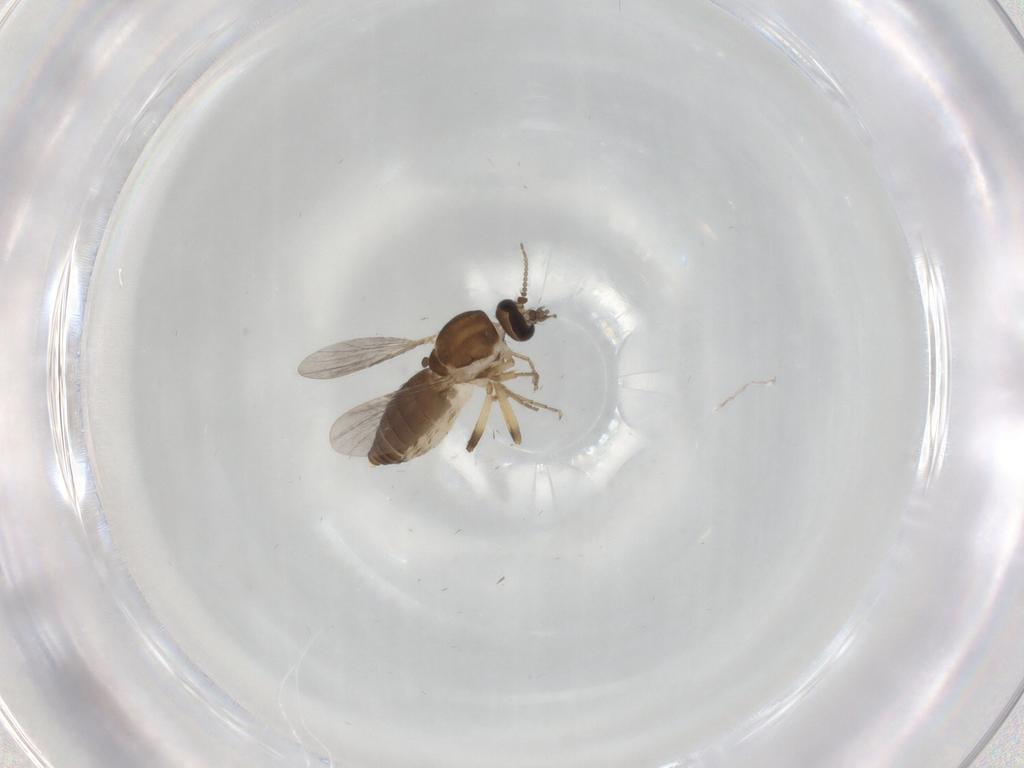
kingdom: Animalia
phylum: Arthropoda
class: Insecta
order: Diptera
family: Ceratopogonidae
